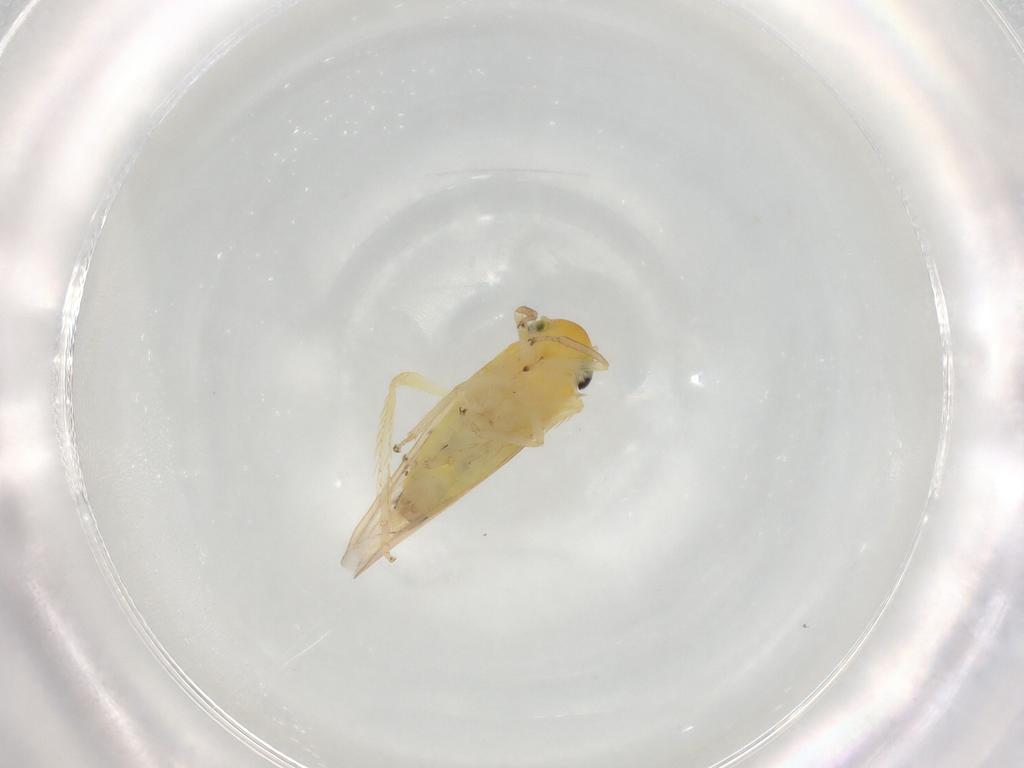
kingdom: Animalia
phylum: Arthropoda
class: Insecta
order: Hemiptera
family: Cicadellidae
